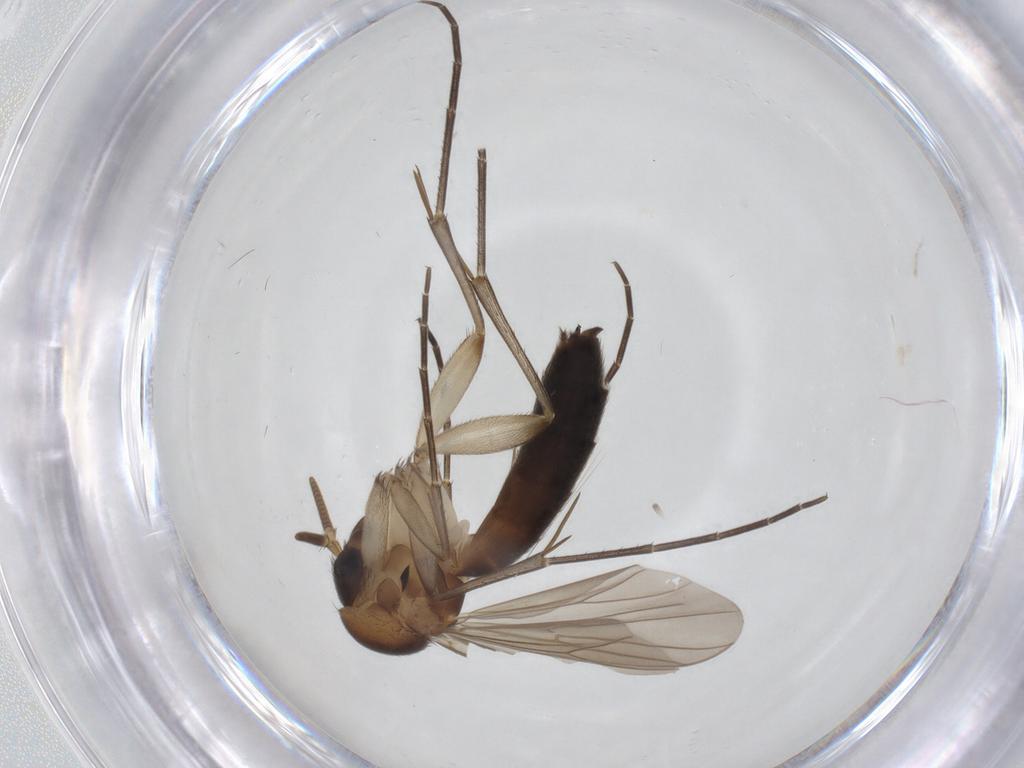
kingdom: Animalia
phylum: Arthropoda
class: Insecta
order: Diptera
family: Mycetophilidae
